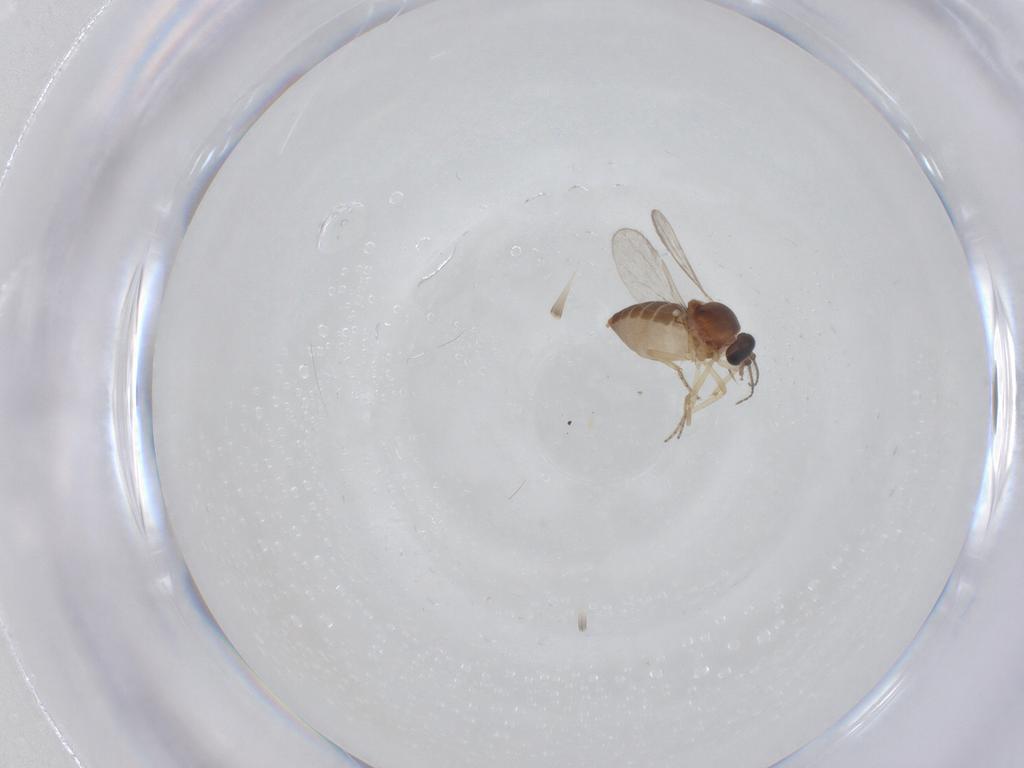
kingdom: Animalia
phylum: Arthropoda
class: Insecta
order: Diptera
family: Ceratopogonidae
